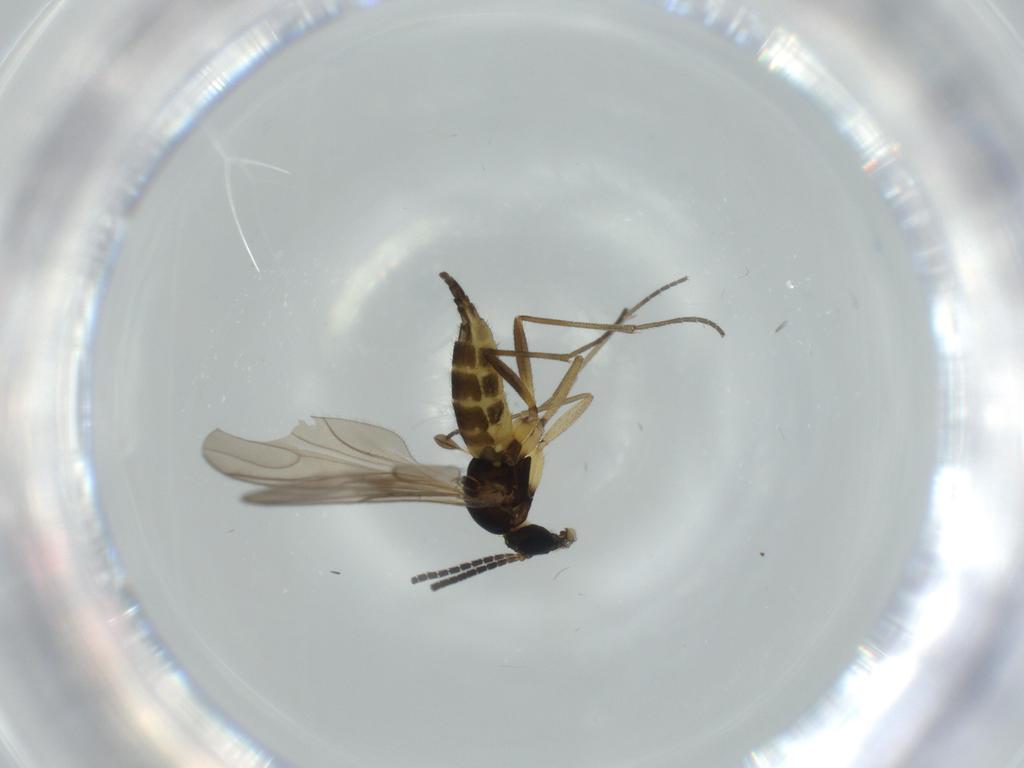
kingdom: Animalia
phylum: Arthropoda
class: Insecta
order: Diptera
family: Sciaridae
